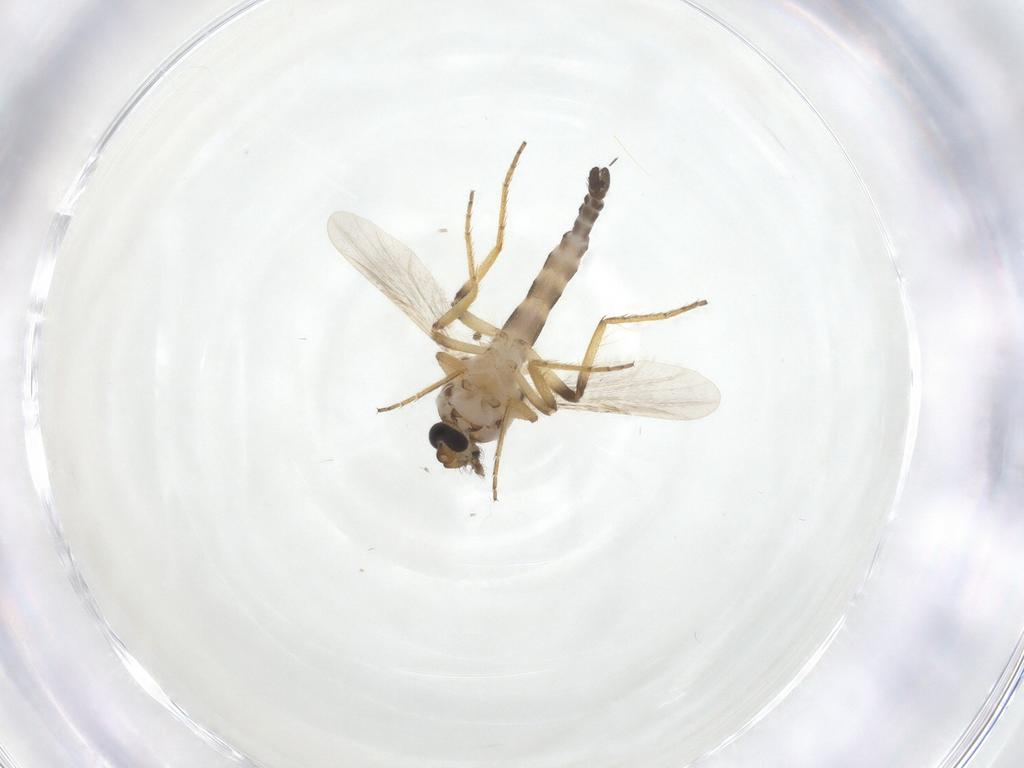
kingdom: Animalia
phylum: Arthropoda
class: Insecta
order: Diptera
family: Ceratopogonidae
